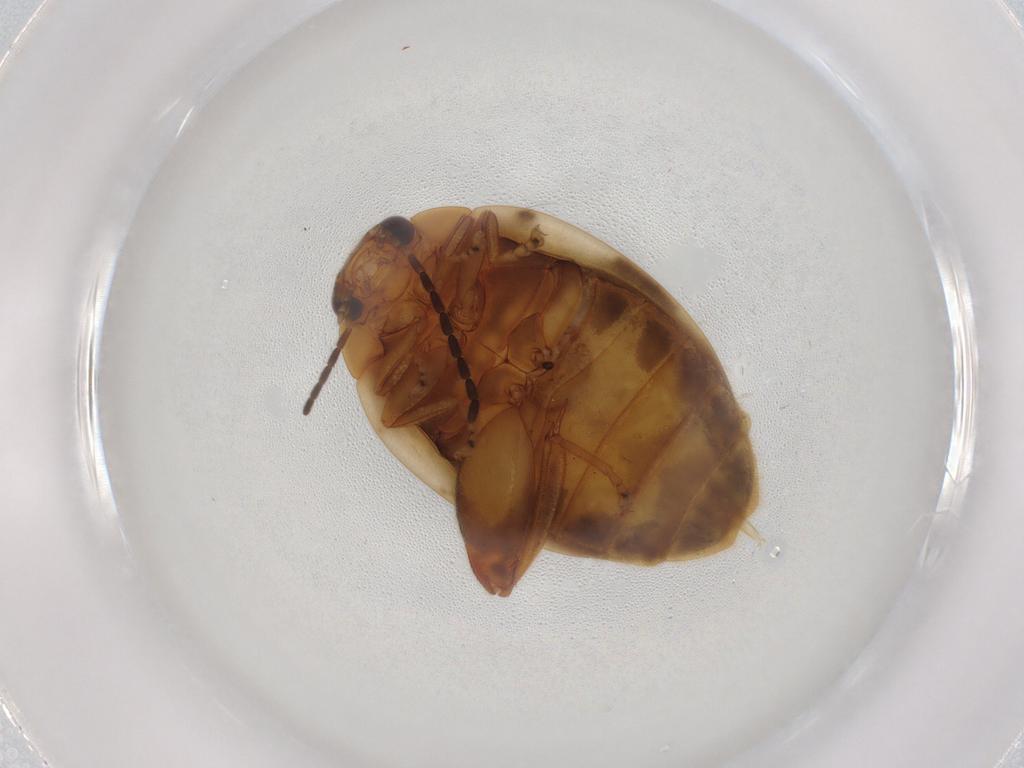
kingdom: Animalia
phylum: Arthropoda
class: Insecta
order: Coleoptera
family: Scirtidae
